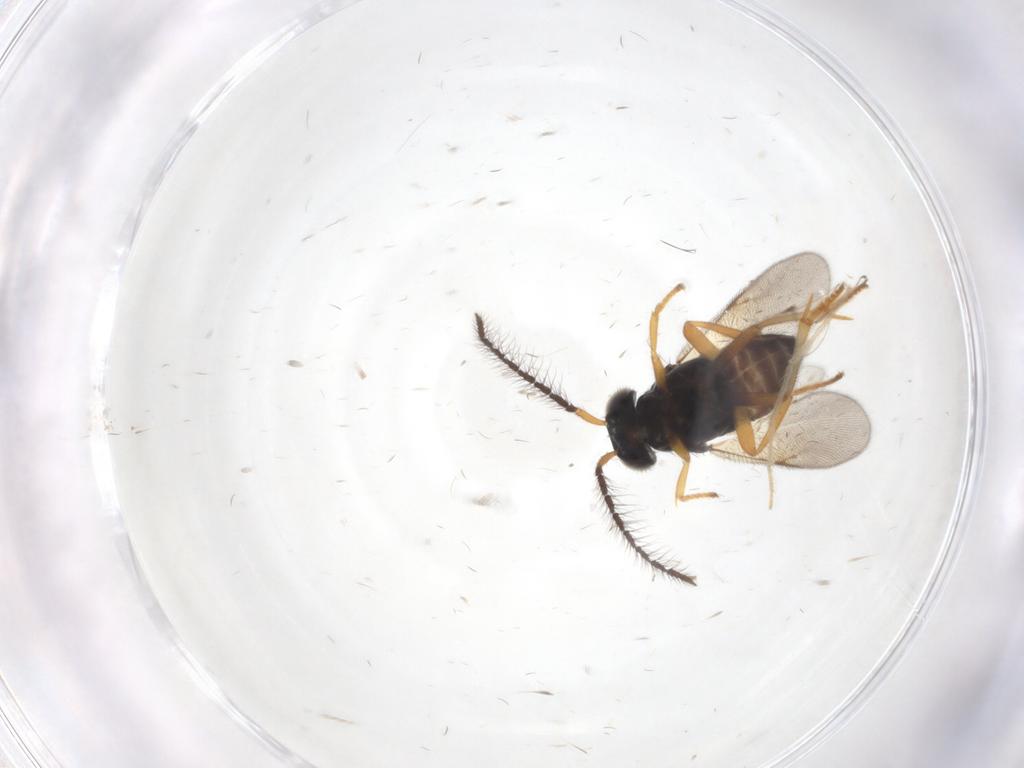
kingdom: Animalia
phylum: Arthropoda
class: Insecta
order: Hymenoptera
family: Encyrtidae
